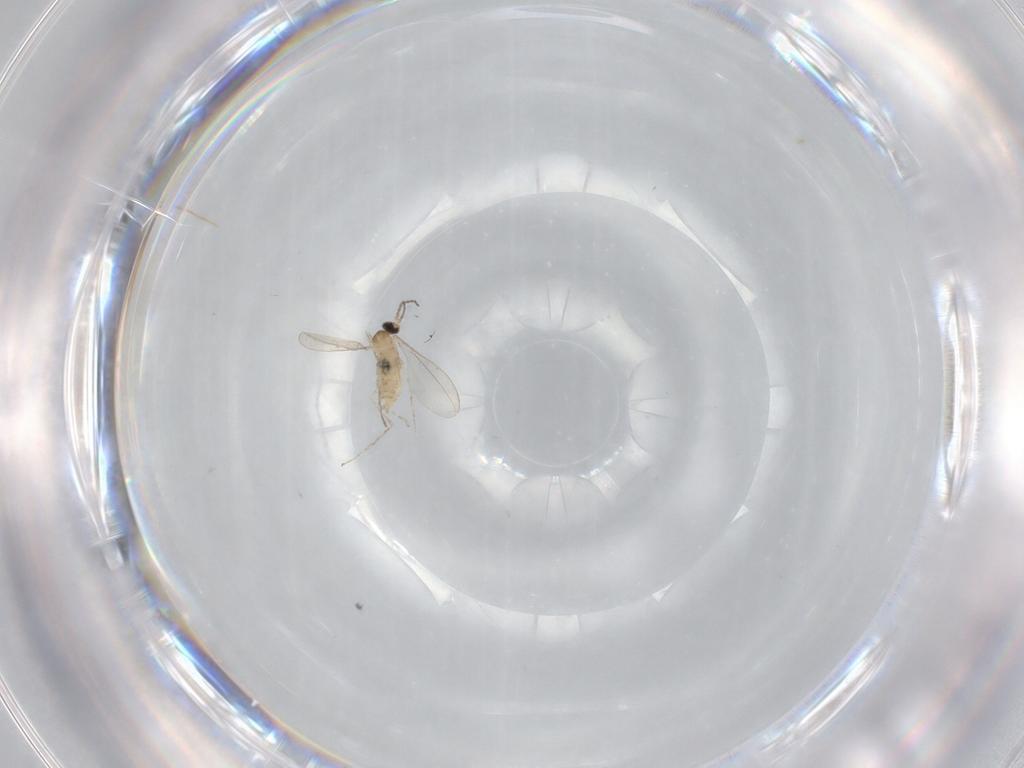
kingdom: Animalia
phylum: Arthropoda
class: Insecta
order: Diptera
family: Cecidomyiidae
